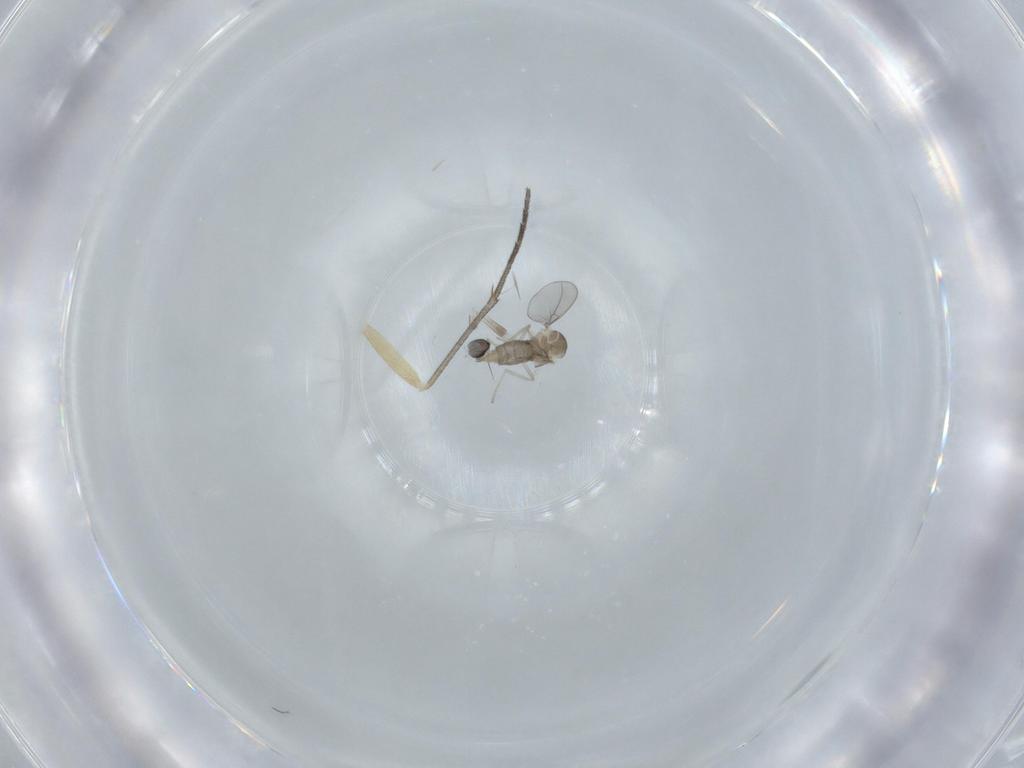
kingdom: Animalia
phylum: Arthropoda
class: Insecta
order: Diptera
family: Cecidomyiidae
